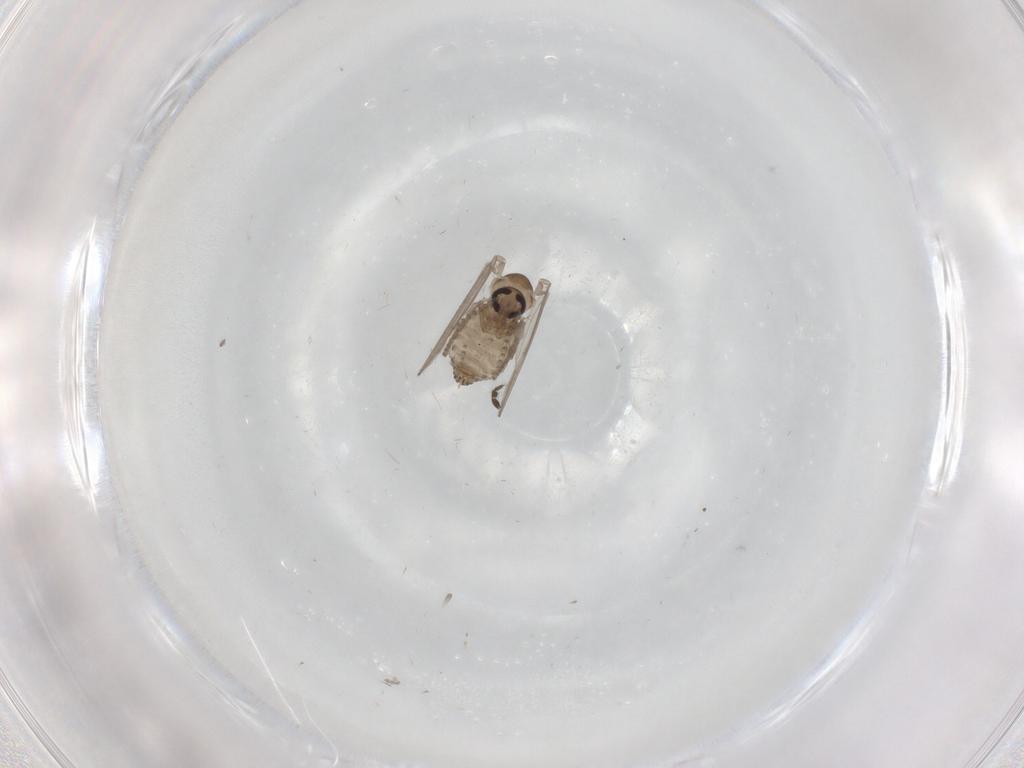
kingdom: Animalia
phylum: Arthropoda
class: Insecta
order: Diptera
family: Psychodidae
